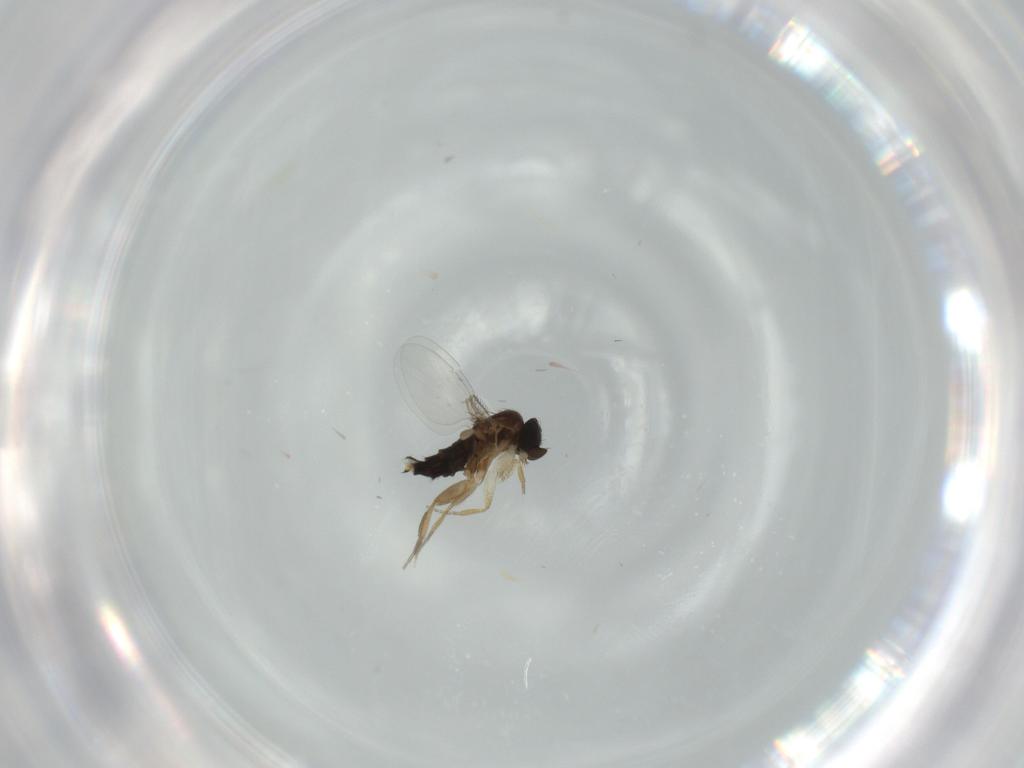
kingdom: Animalia
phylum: Arthropoda
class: Insecta
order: Diptera
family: Phoridae
